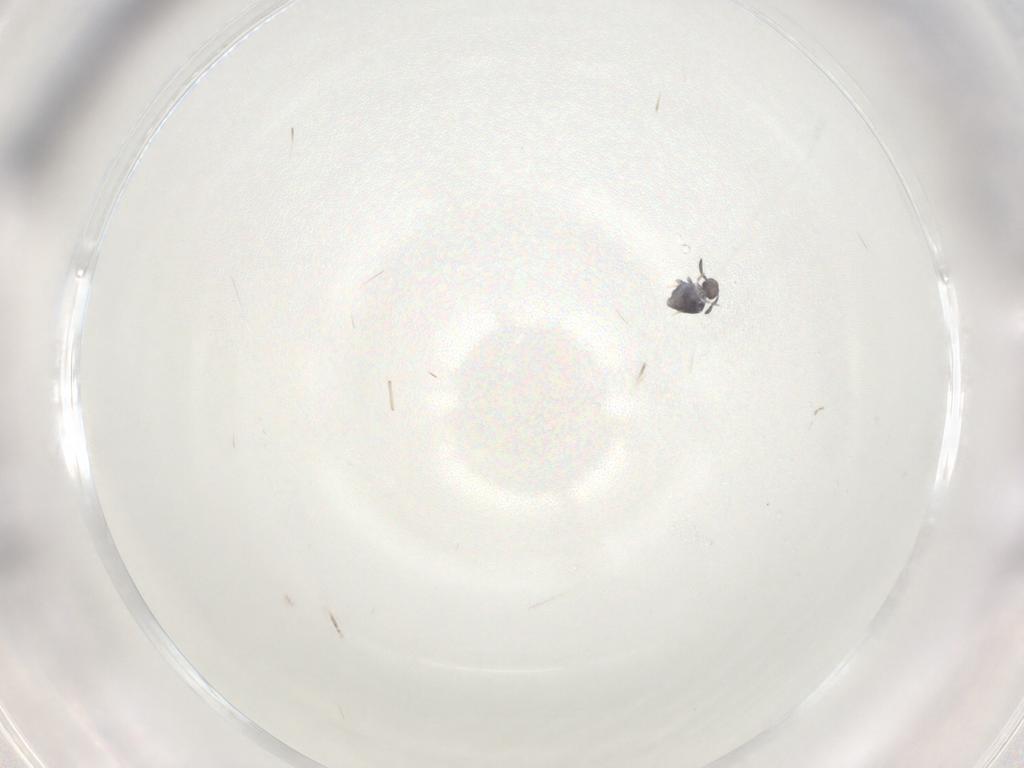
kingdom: Animalia
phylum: Arthropoda
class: Collembola
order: Symphypleona
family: Katiannidae
